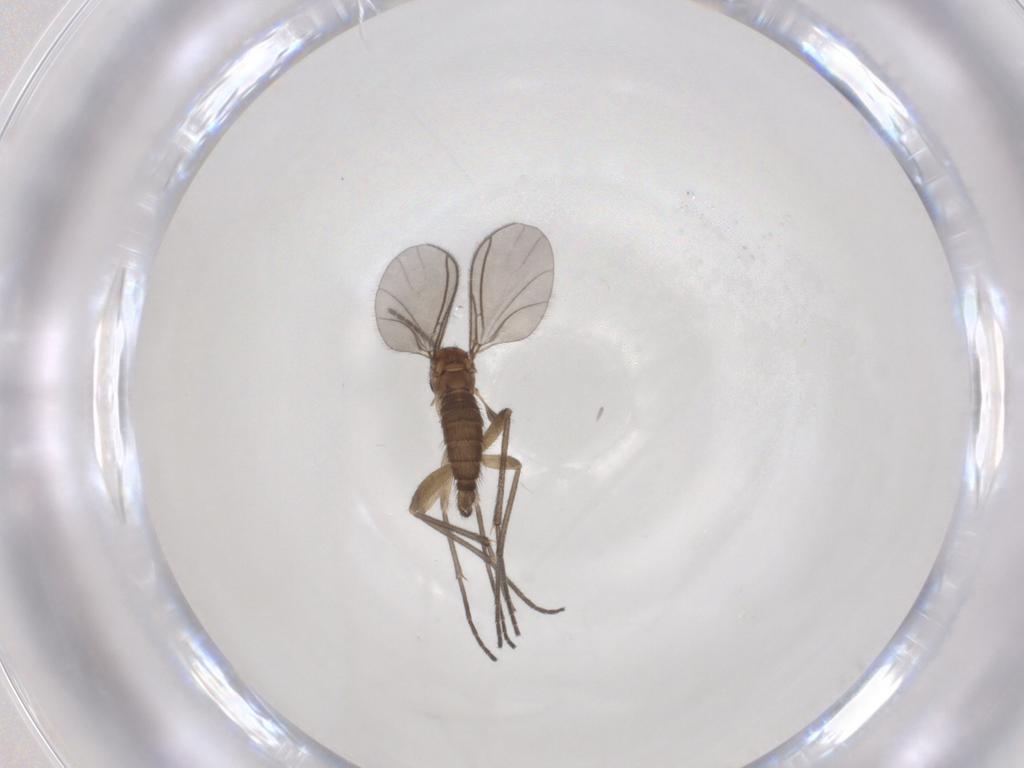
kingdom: Animalia
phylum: Arthropoda
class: Insecta
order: Diptera
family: Sciaridae
